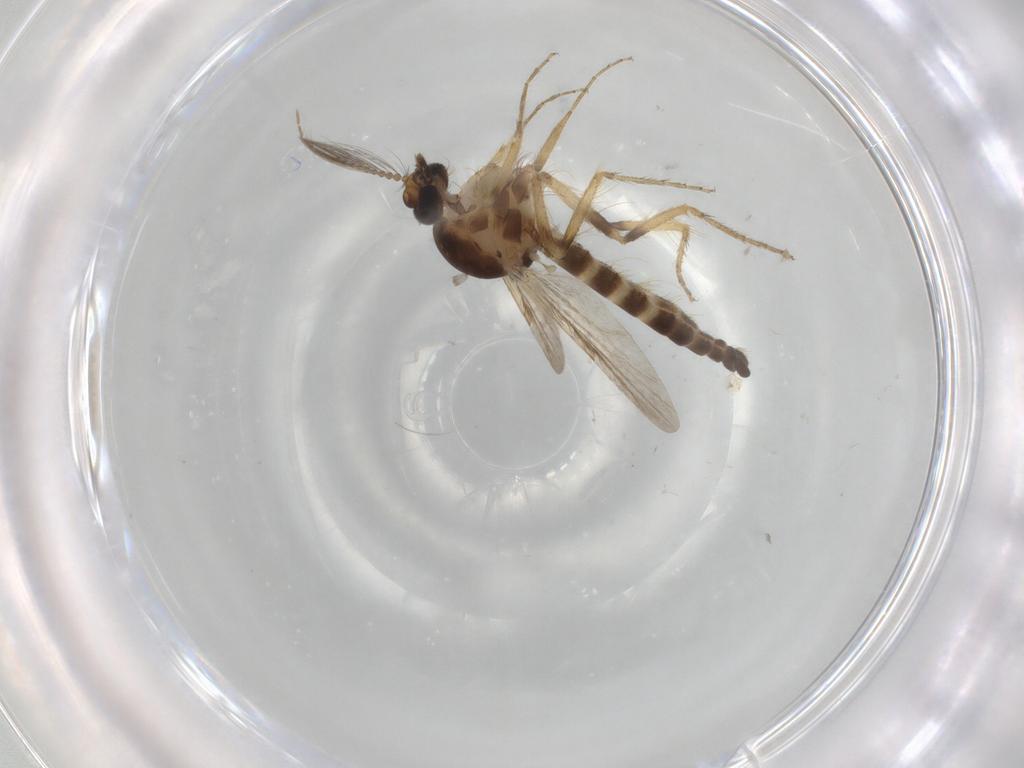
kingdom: Animalia
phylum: Arthropoda
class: Insecta
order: Diptera
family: Ceratopogonidae
